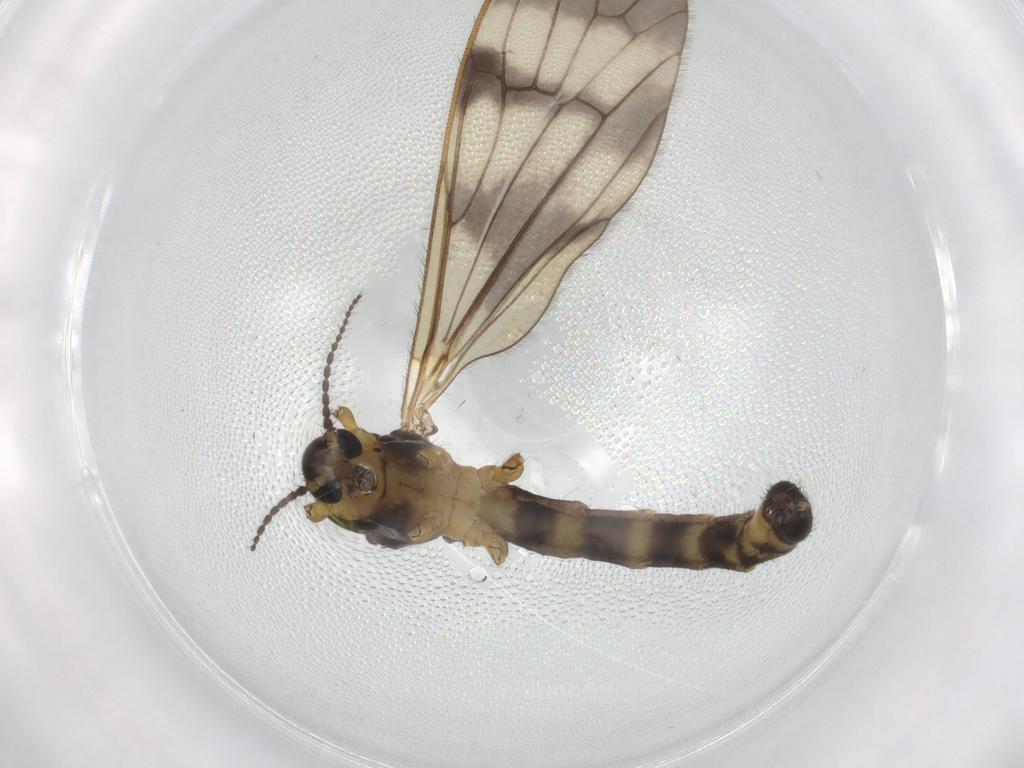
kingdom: Animalia
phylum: Arthropoda
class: Insecta
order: Diptera
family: Limoniidae
